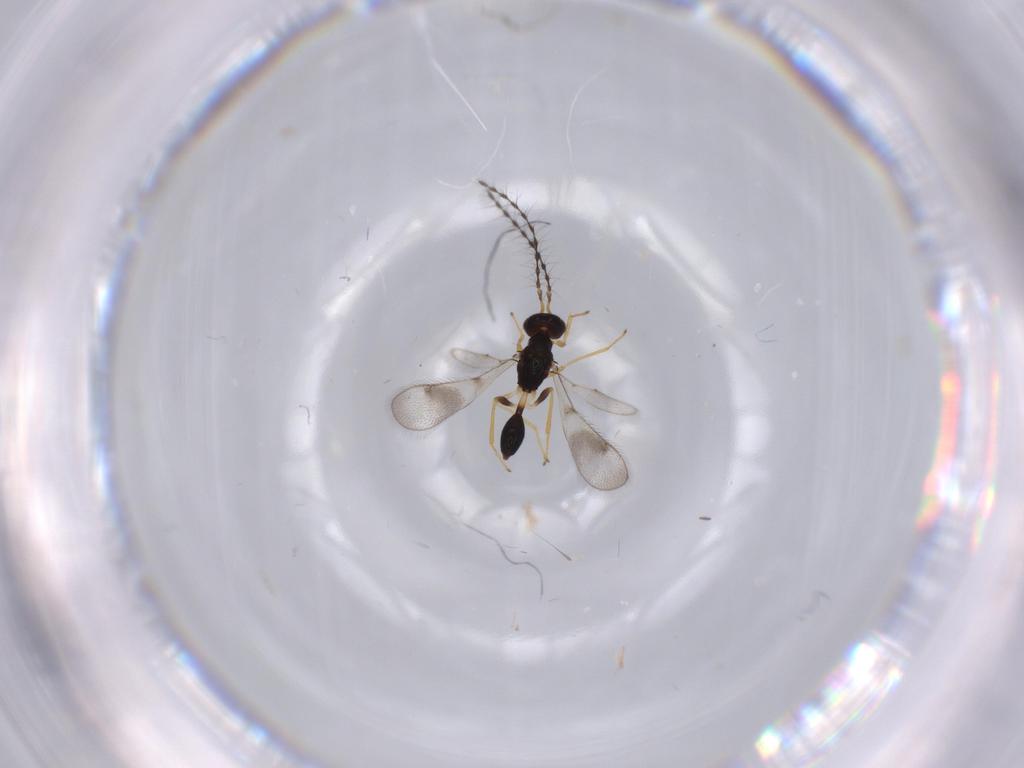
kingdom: Animalia
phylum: Arthropoda
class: Insecta
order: Hymenoptera
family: Diparidae
